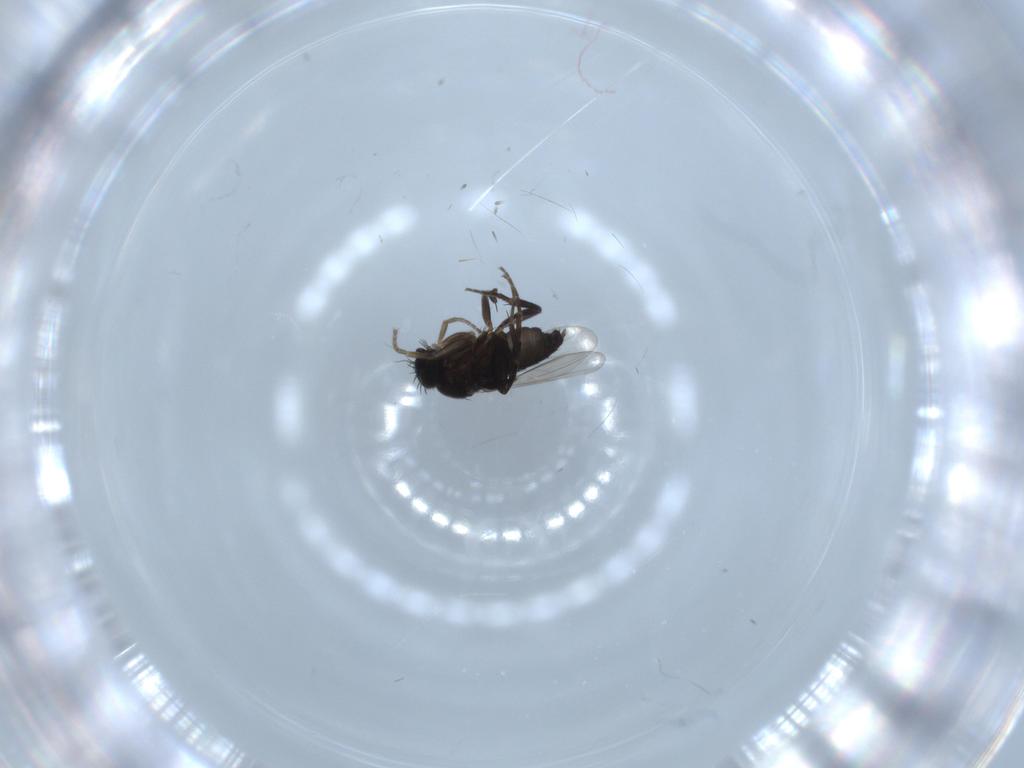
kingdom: Animalia
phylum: Arthropoda
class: Insecta
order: Diptera
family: Phoridae
